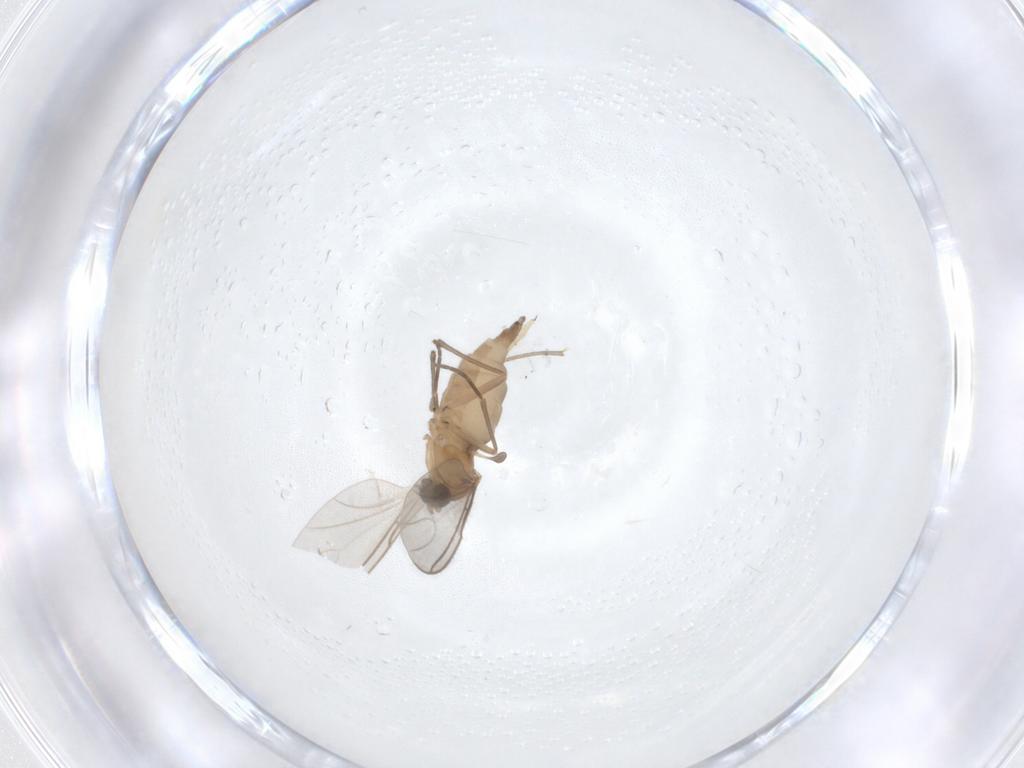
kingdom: Animalia
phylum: Arthropoda
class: Insecta
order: Diptera
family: Sciaridae
